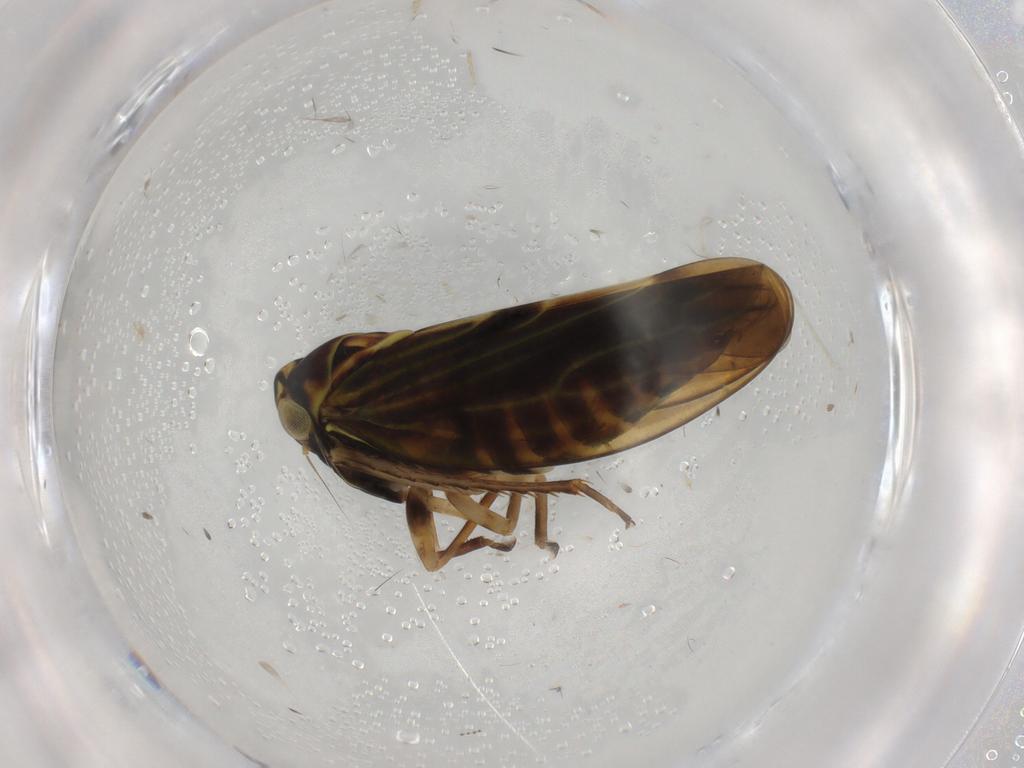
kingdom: Animalia
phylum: Arthropoda
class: Insecta
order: Hemiptera
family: Cicadellidae
